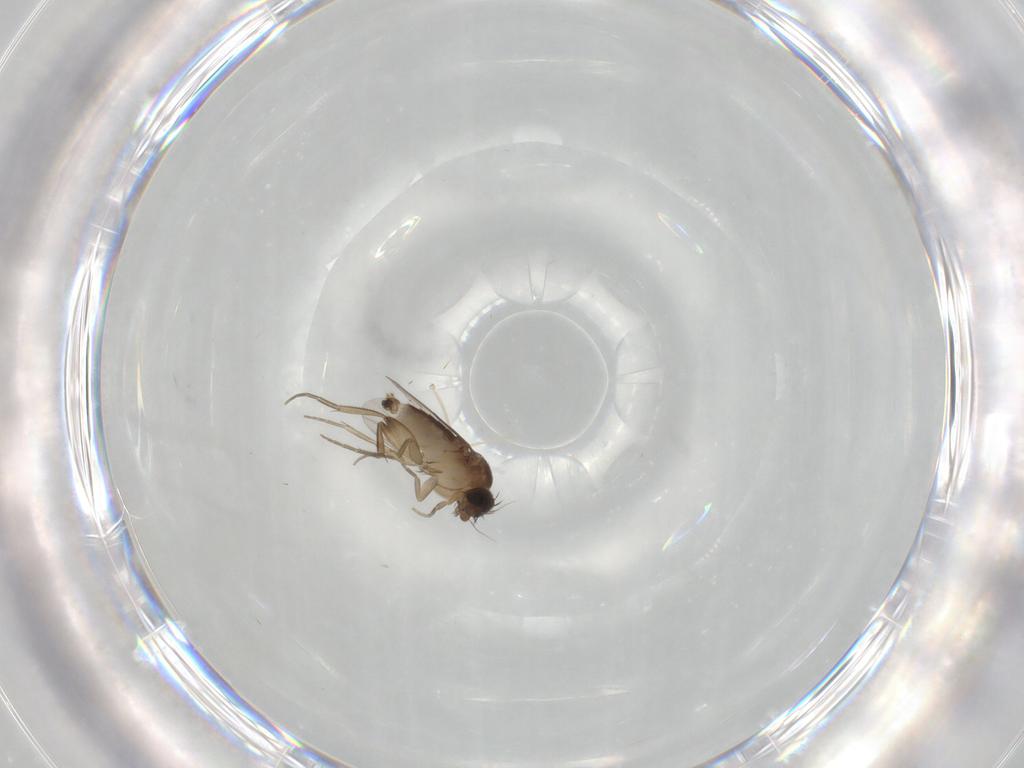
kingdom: Animalia
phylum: Arthropoda
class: Insecta
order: Diptera
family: Phoridae
